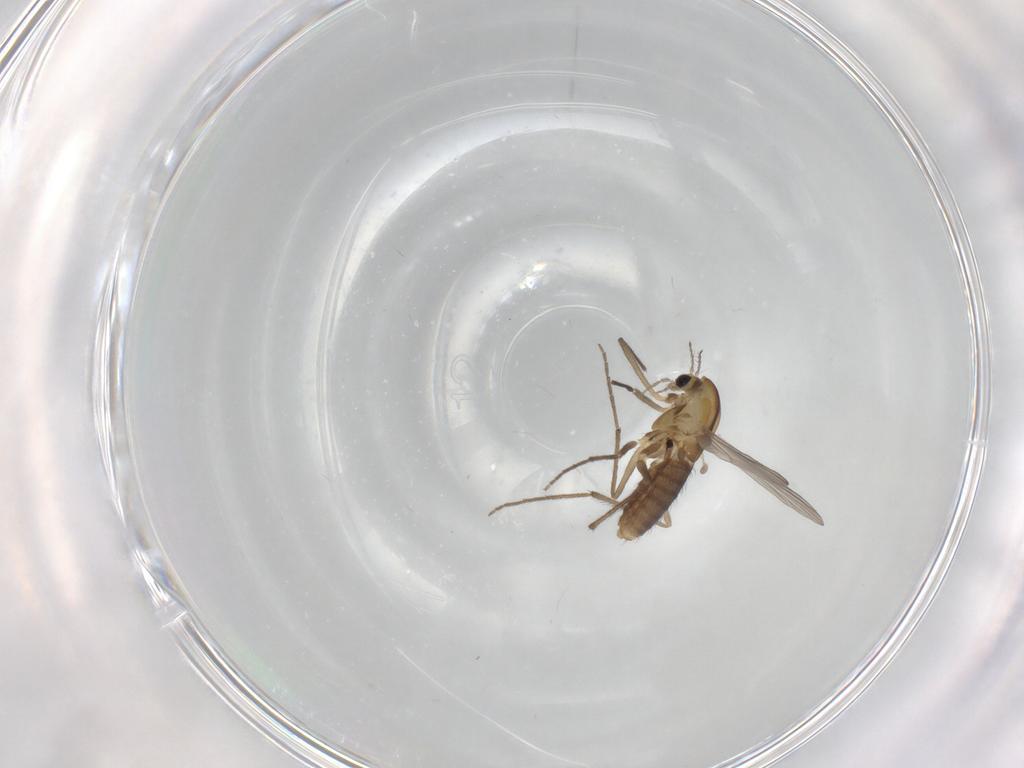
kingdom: Animalia
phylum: Arthropoda
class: Insecta
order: Diptera
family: Chironomidae
